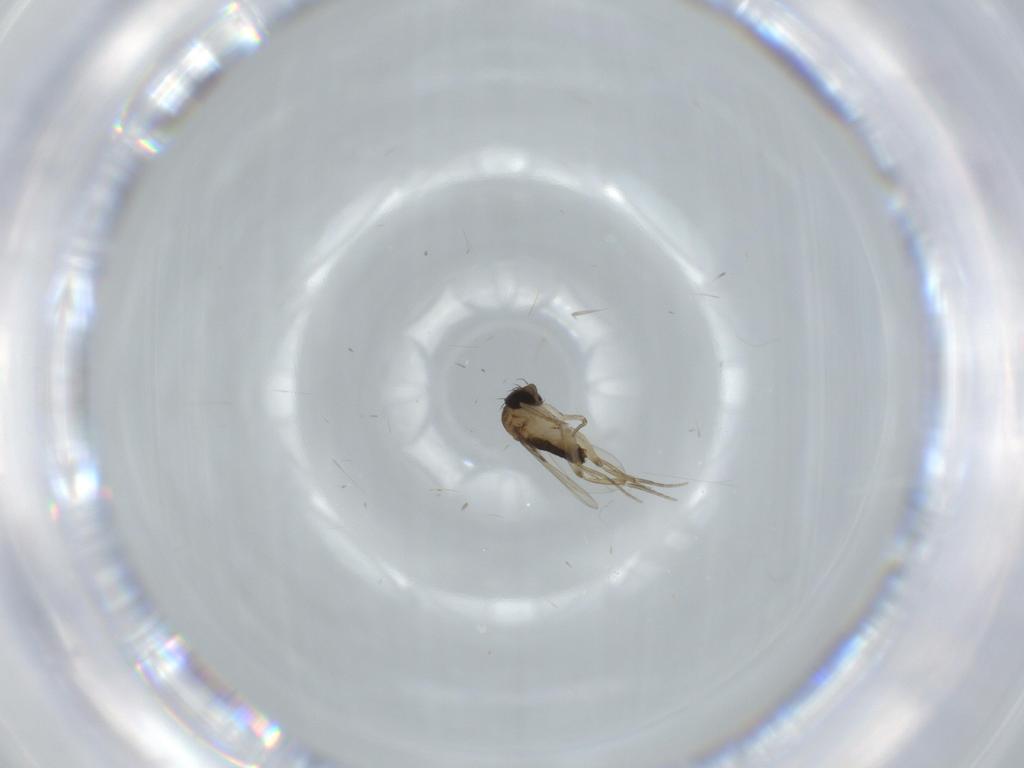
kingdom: Animalia
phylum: Arthropoda
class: Insecta
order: Diptera
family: Phoridae
